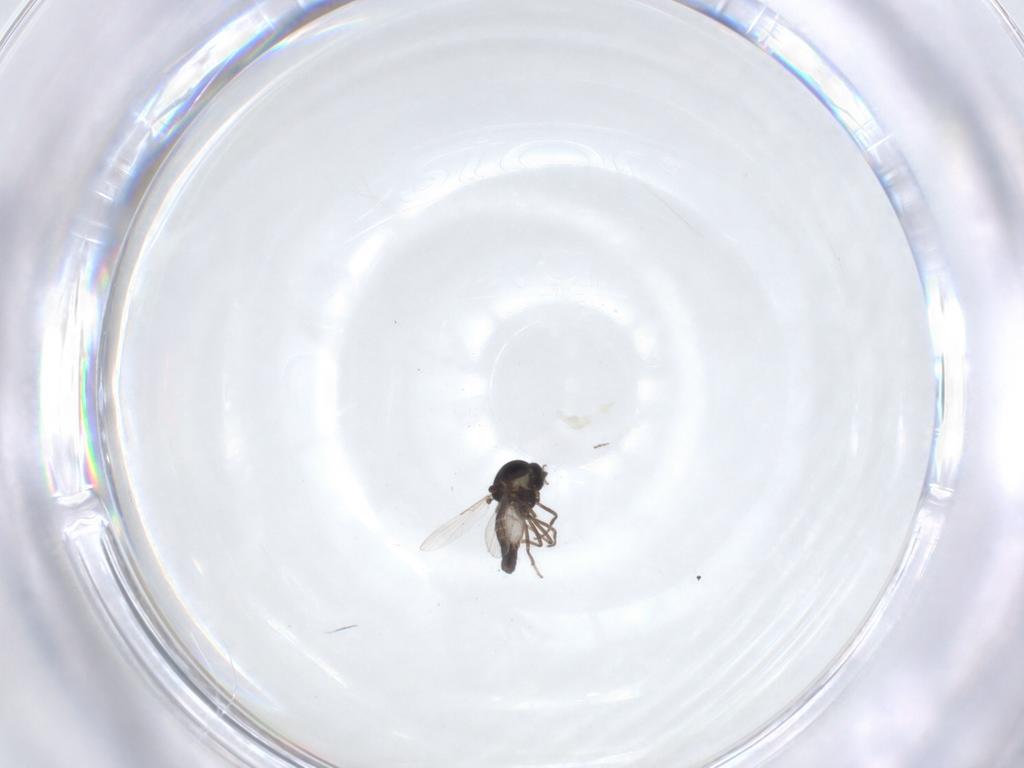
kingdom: Animalia
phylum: Arthropoda
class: Insecta
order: Diptera
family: Ceratopogonidae
